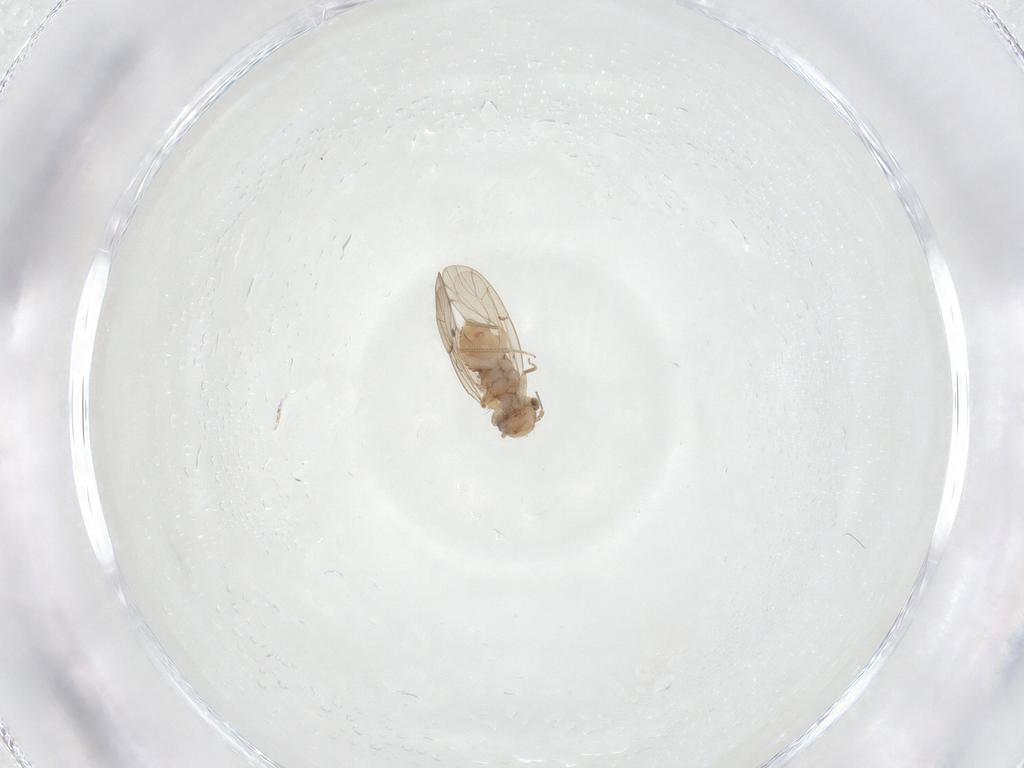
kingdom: Animalia
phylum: Arthropoda
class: Insecta
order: Psocodea
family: Ectopsocidae
